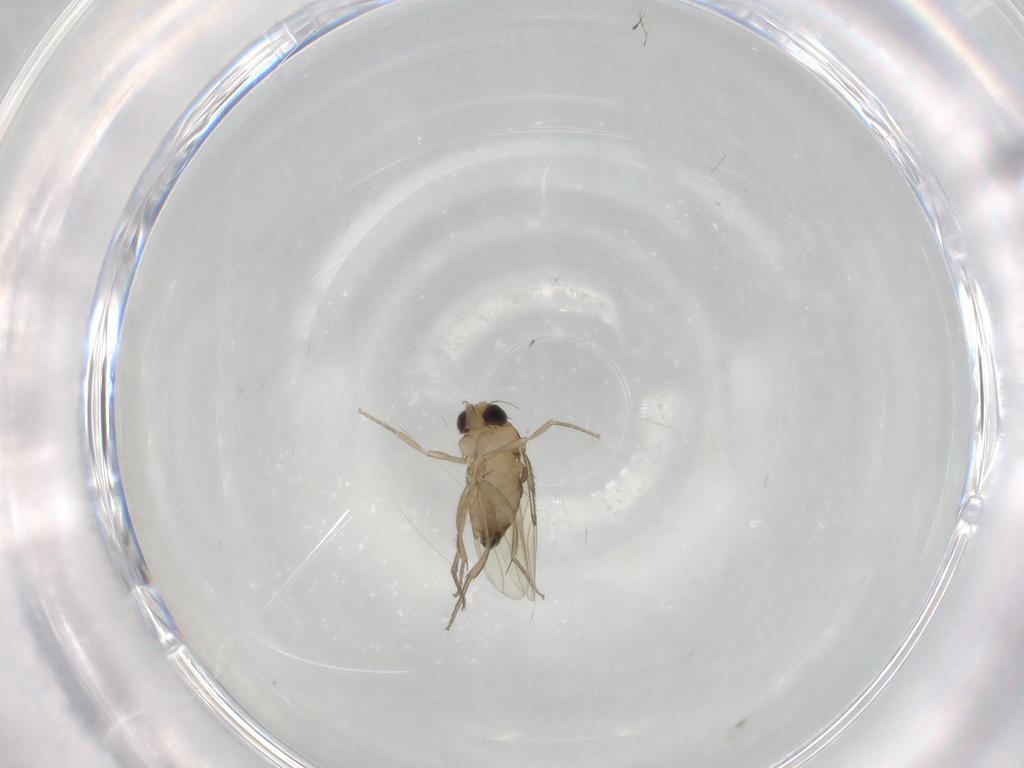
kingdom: Animalia
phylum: Arthropoda
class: Insecta
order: Diptera
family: Phoridae
